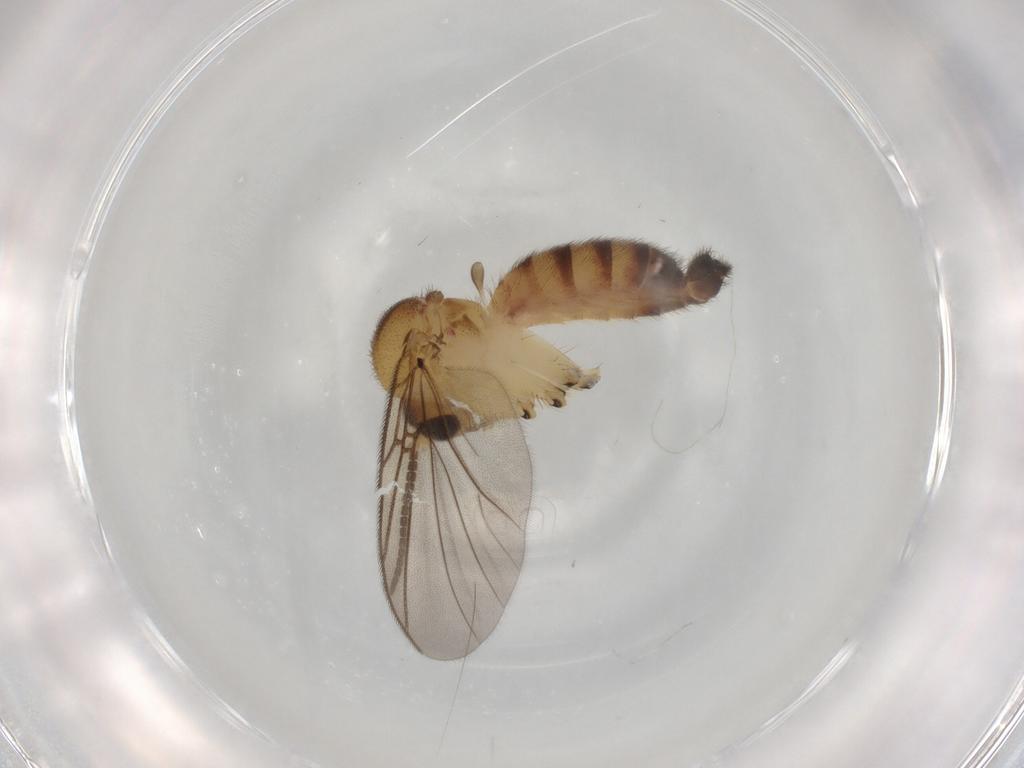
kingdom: Animalia
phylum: Arthropoda
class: Insecta
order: Diptera
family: Mycetophilidae
